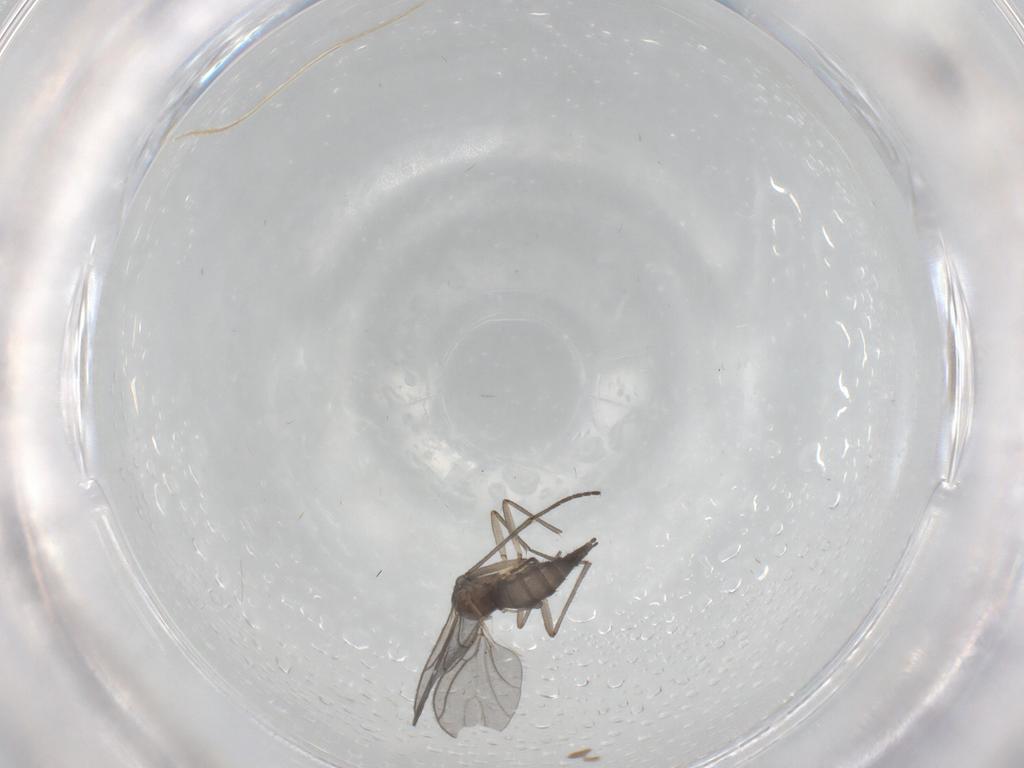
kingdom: Animalia
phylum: Arthropoda
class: Insecta
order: Diptera
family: Sciaridae
